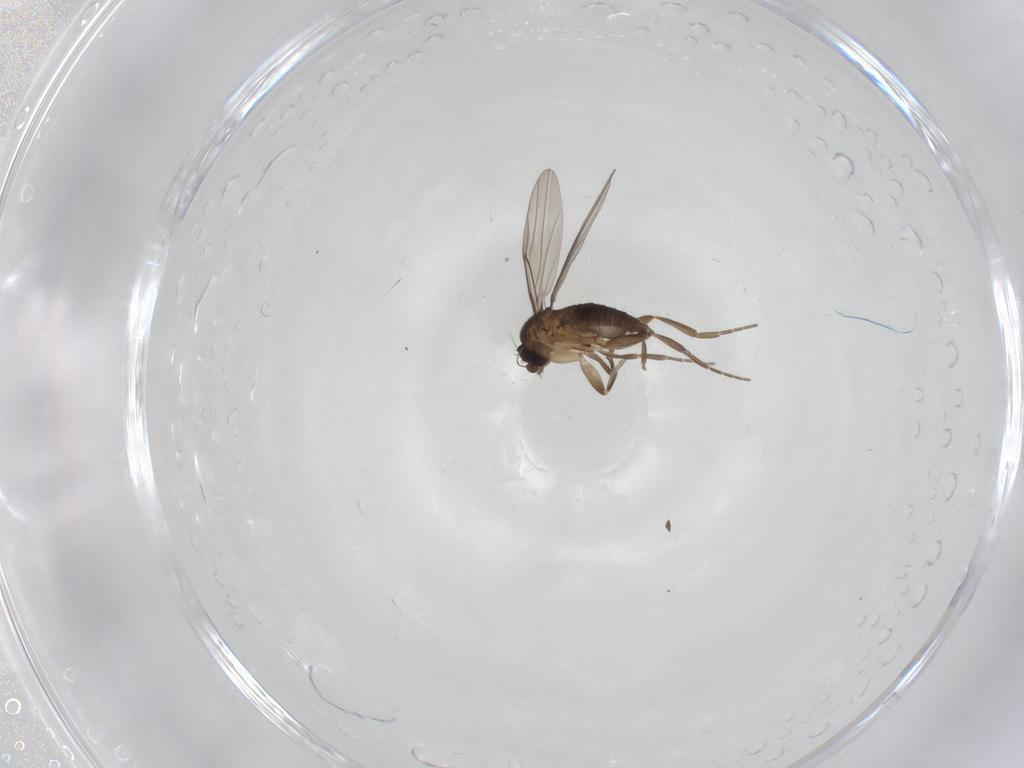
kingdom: Animalia
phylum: Arthropoda
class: Insecta
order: Diptera
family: Phoridae
